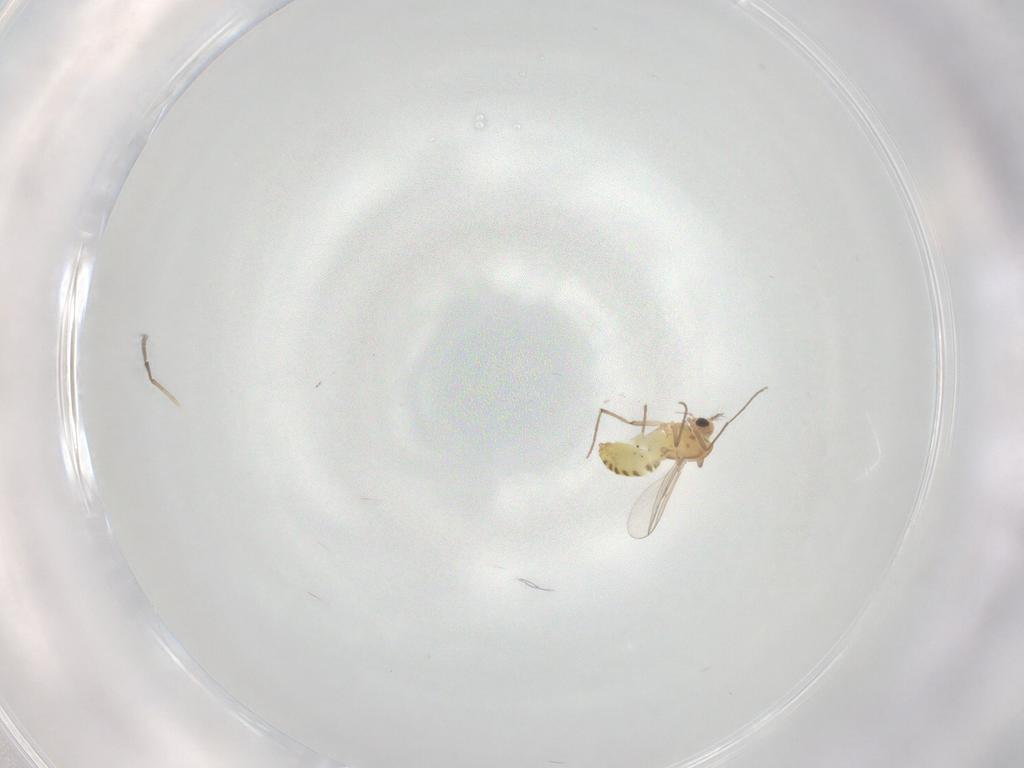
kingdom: Animalia
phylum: Arthropoda
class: Insecta
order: Diptera
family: Chironomidae
